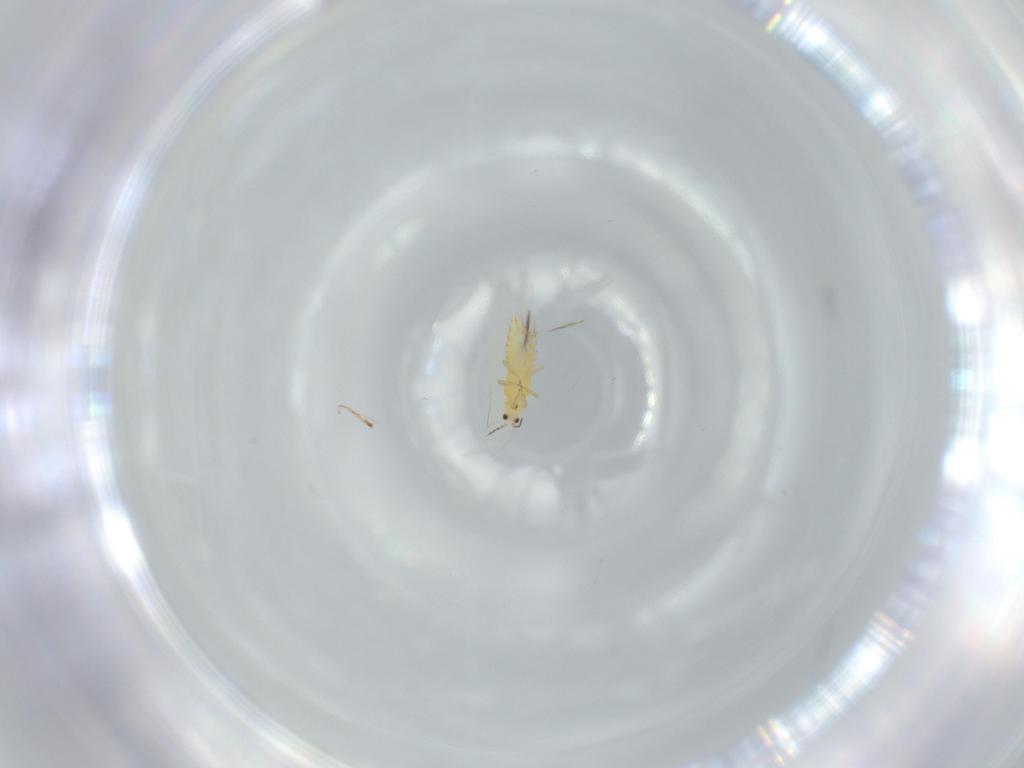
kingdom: Animalia
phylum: Arthropoda
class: Insecta
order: Thysanoptera
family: Thripidae
